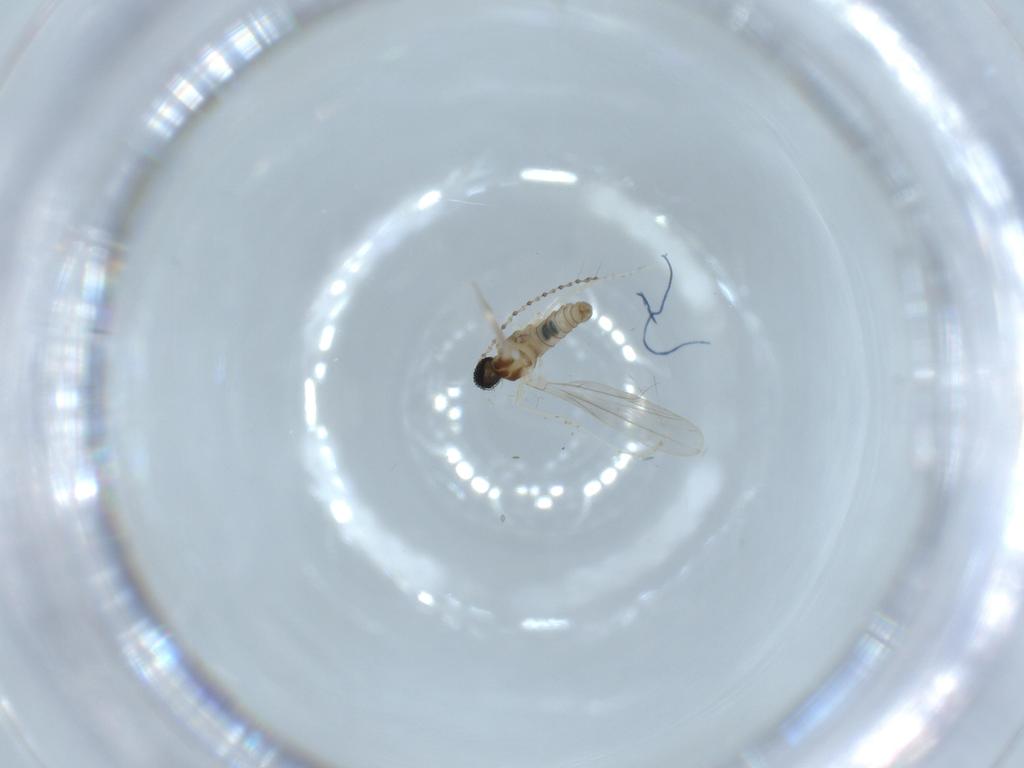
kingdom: Animalia
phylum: Arthropoda
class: Insecta
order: Diptera
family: Cecidomyiidae
